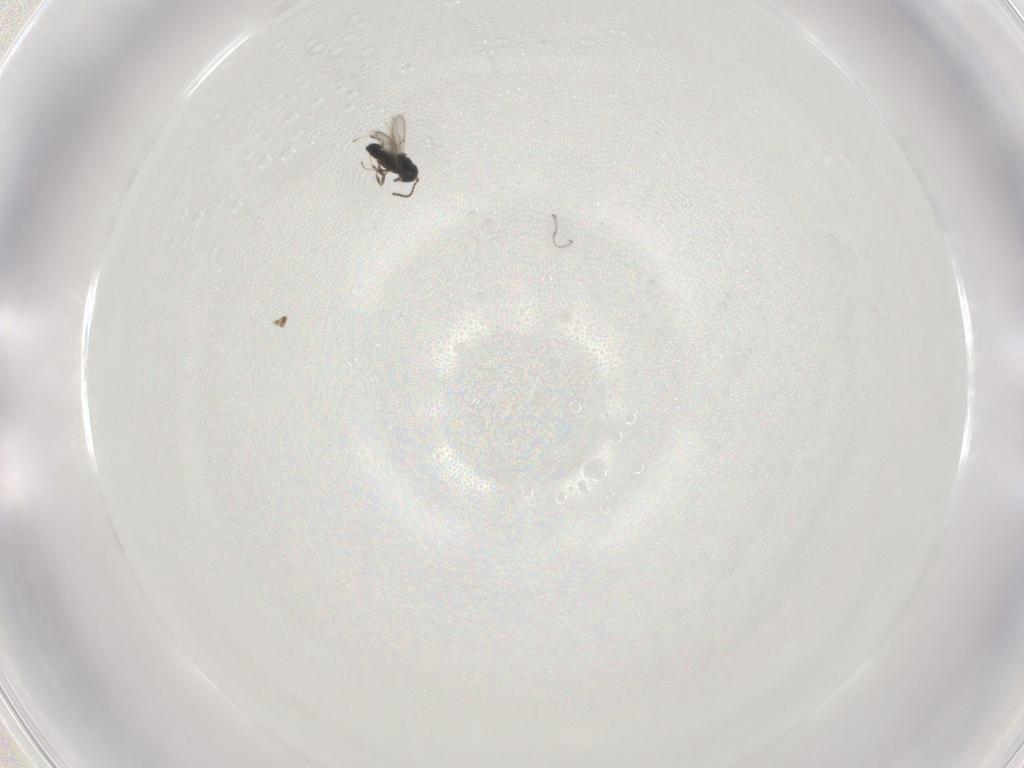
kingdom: Animalia
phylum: Arthropoda
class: Insecta
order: Hymenoptera
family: Scelionidae
